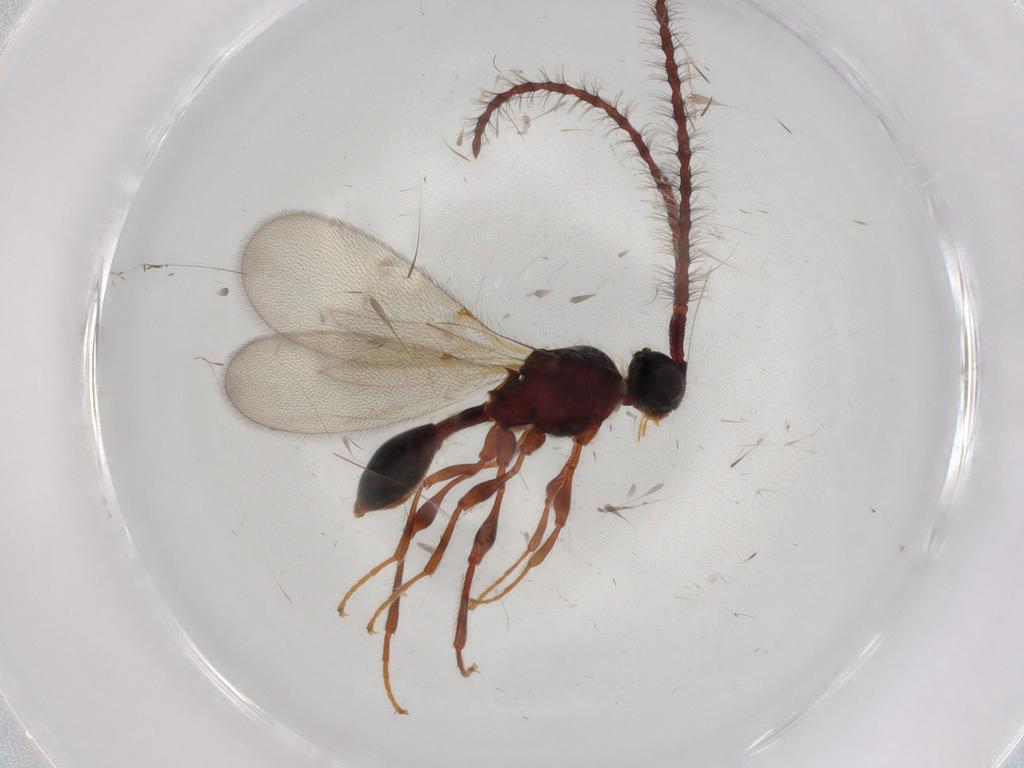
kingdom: Animalia
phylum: Arthropoda
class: Insecta
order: Hymenoptera
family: Diapriidae
